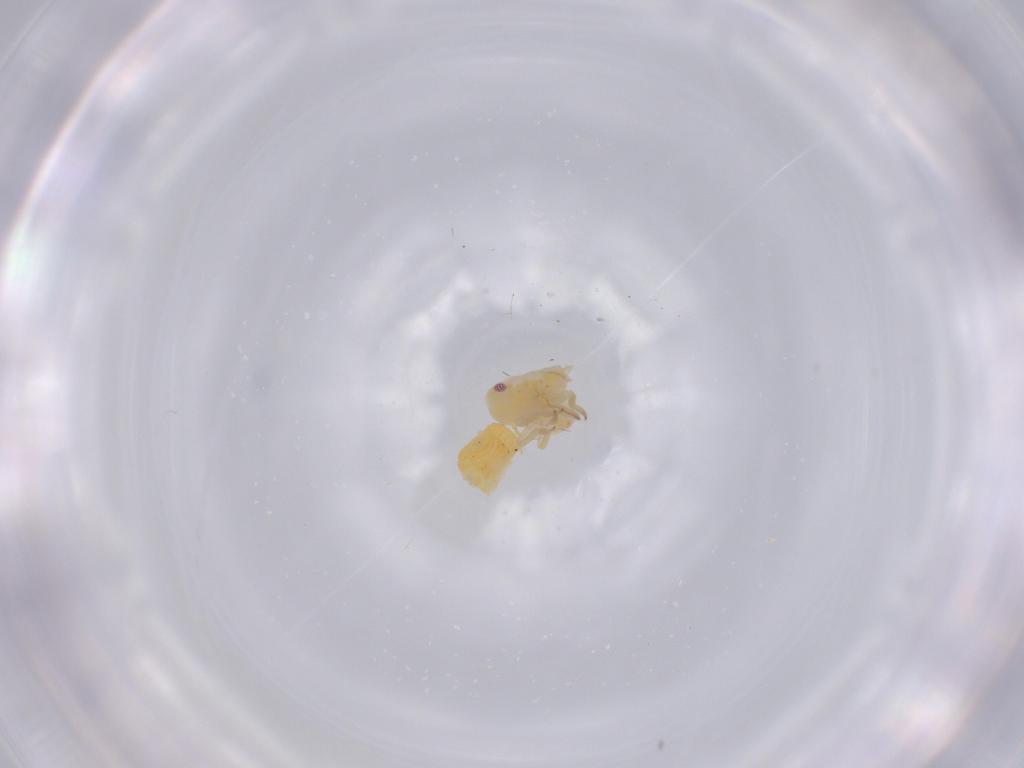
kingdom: Animalia
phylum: Arthropoda
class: Insecta
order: Hemiptera
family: Flatidae
